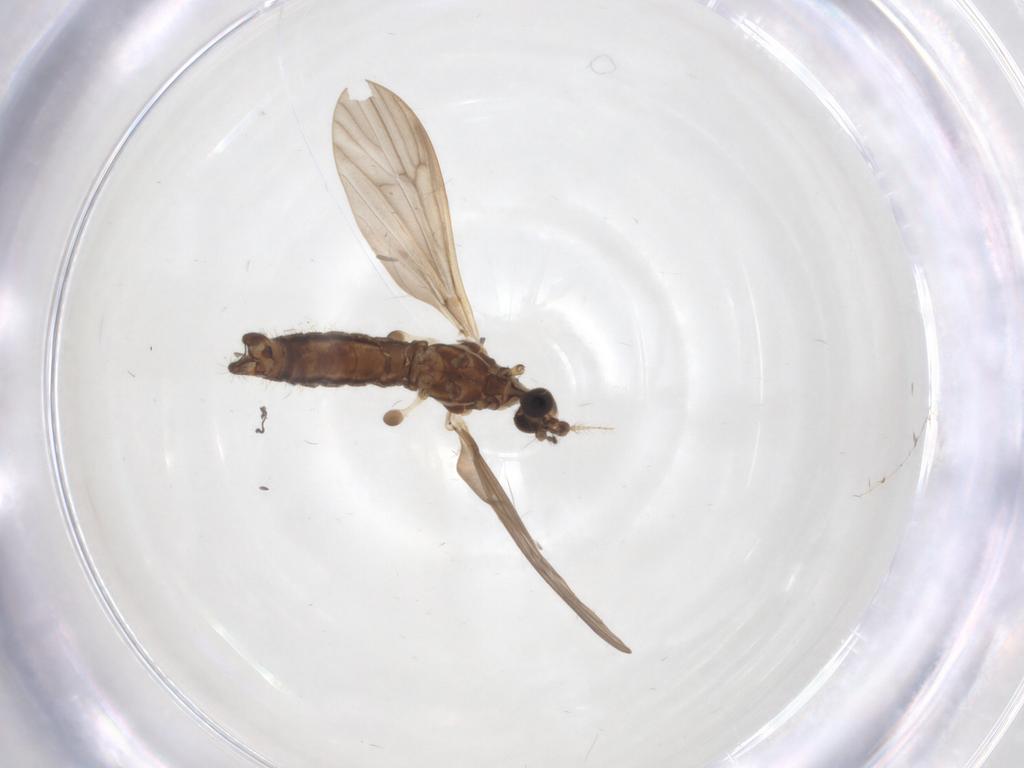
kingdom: Animalia
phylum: Arthropoda
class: Insecta
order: Diptera
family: Limoniidae
